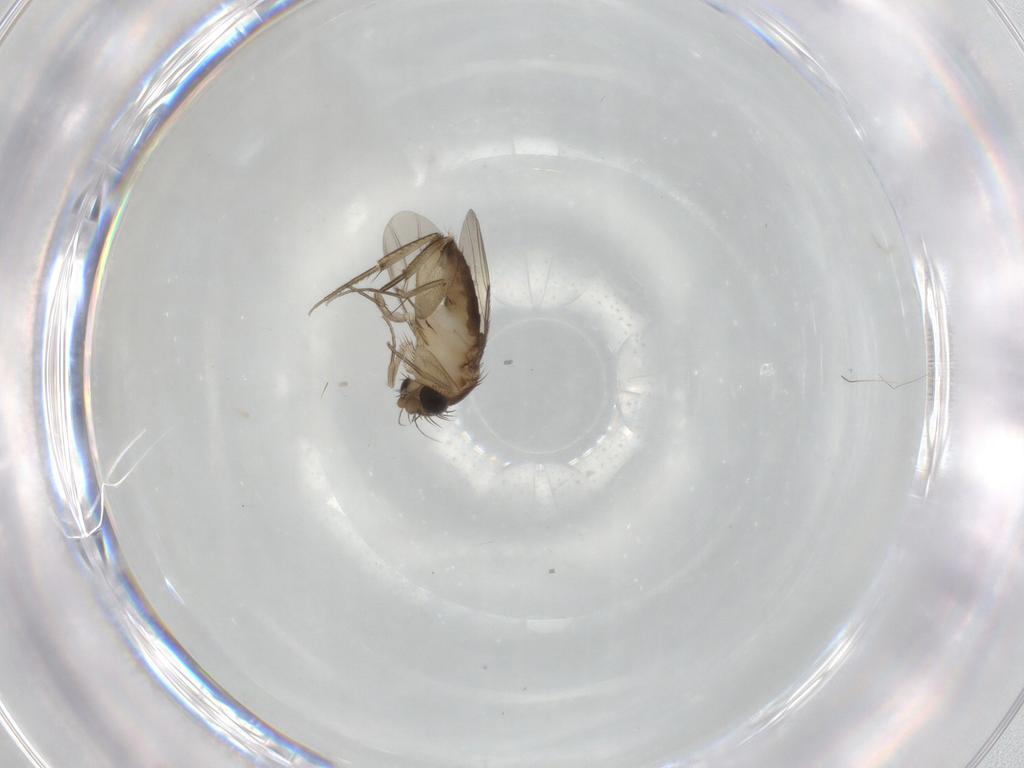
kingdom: Animalia
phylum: Arthropoda
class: Insecta
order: Diptera
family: Phoridae
